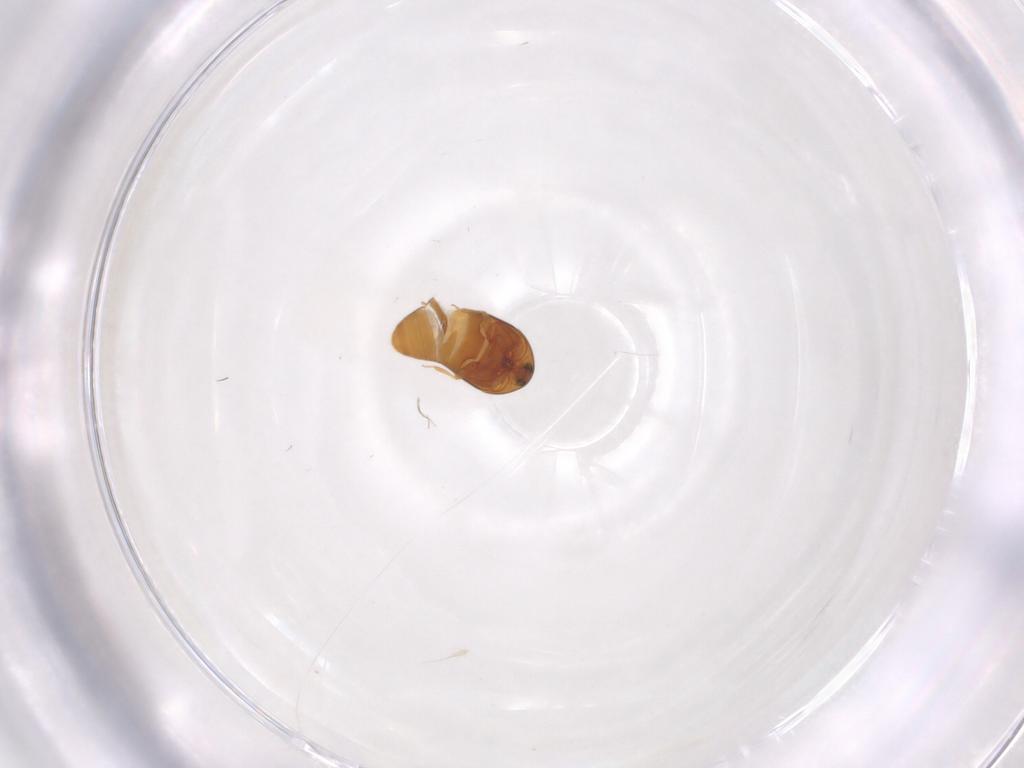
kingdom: Animalia
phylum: Arthropoda
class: Insecta
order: Coleoptera
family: Corylophidae
